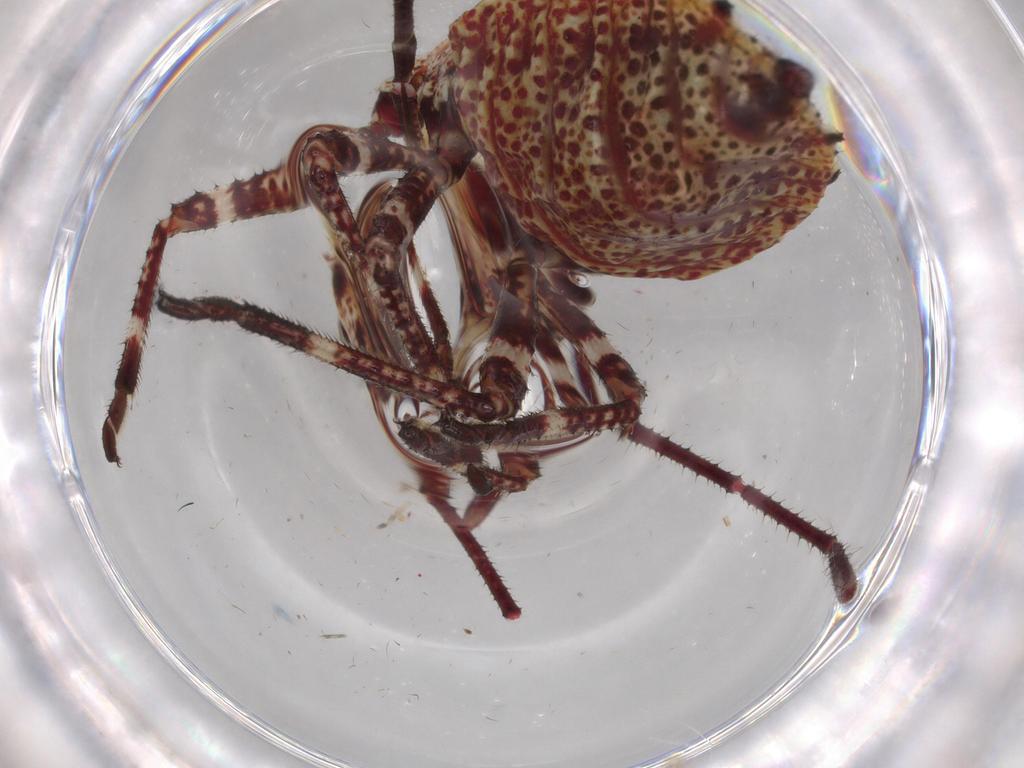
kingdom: Animalia
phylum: Arthropoda
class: Insecta
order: Hemiptera
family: Coreidae
